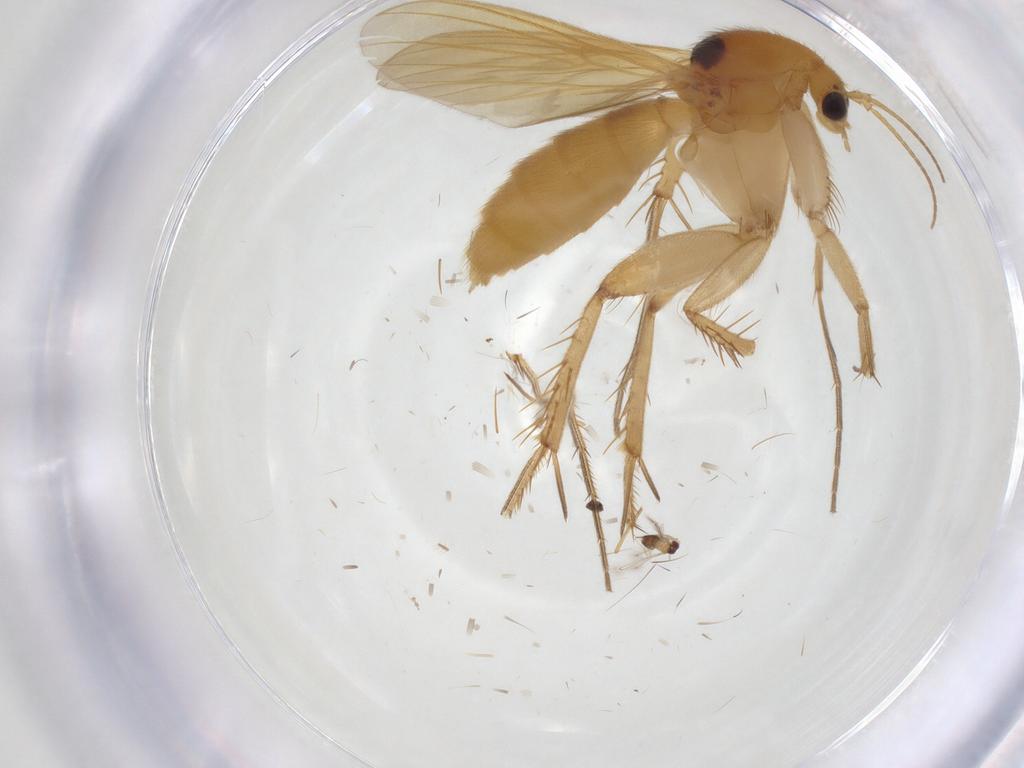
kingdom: Animalia
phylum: Arthropoda
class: Insecta
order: Diptera
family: Mycetophilidae
